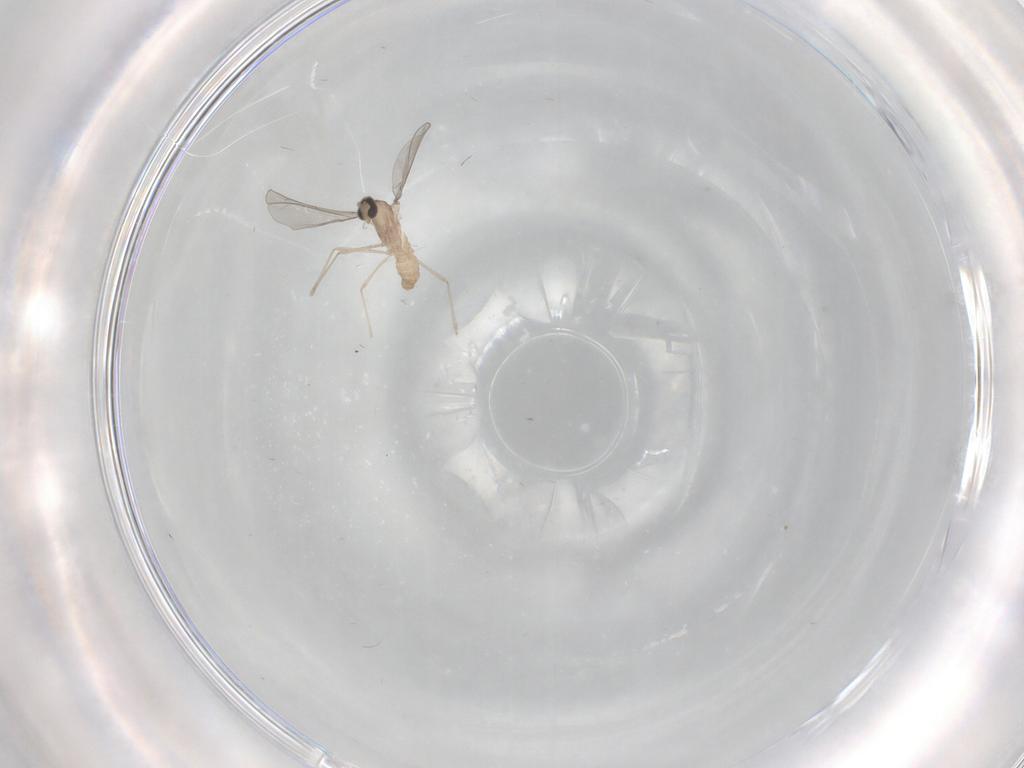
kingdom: Animalia
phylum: Arthropoda
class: Insecta
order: Diptera
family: Cecidomyiidae
